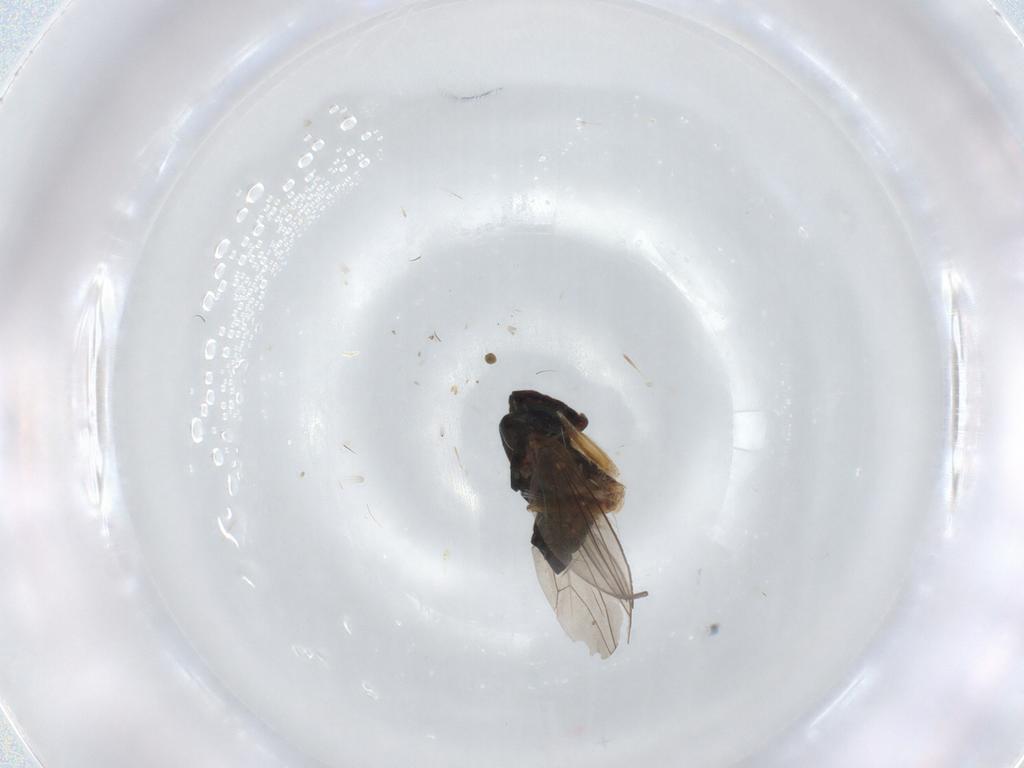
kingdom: Animalia
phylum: Arthropoda
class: Insecta
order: Diptera
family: Dolichopodidae
